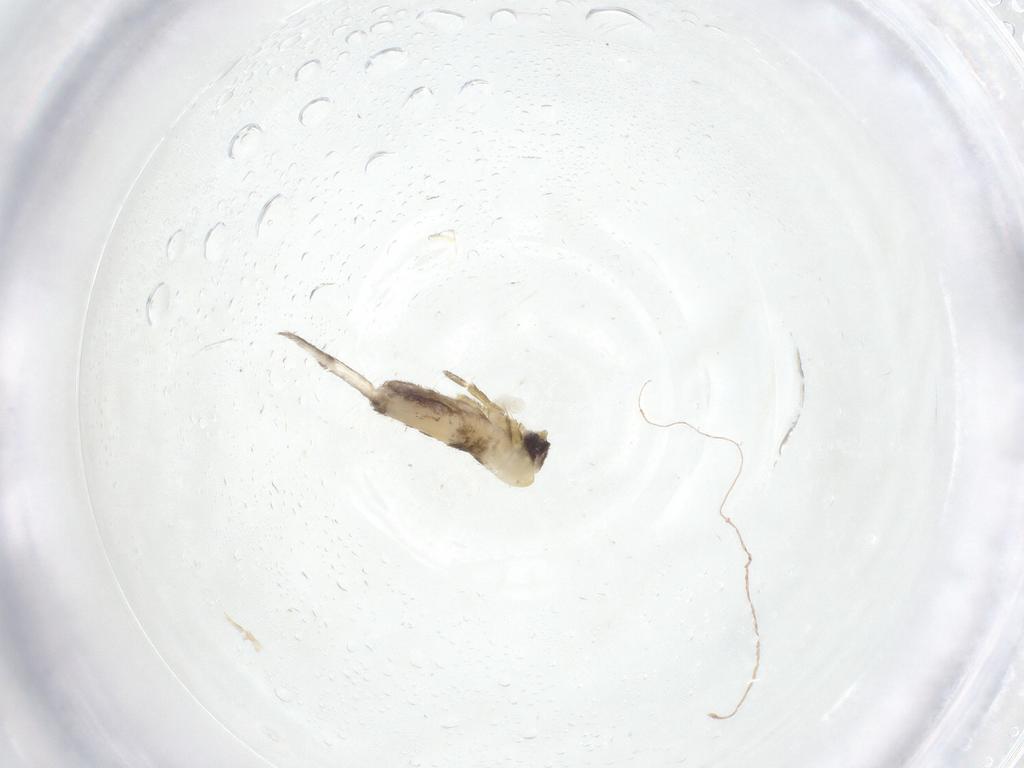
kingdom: Animalia
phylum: Arthropoda
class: Collembola
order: Entomobryomorpha
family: Entomobryidae
